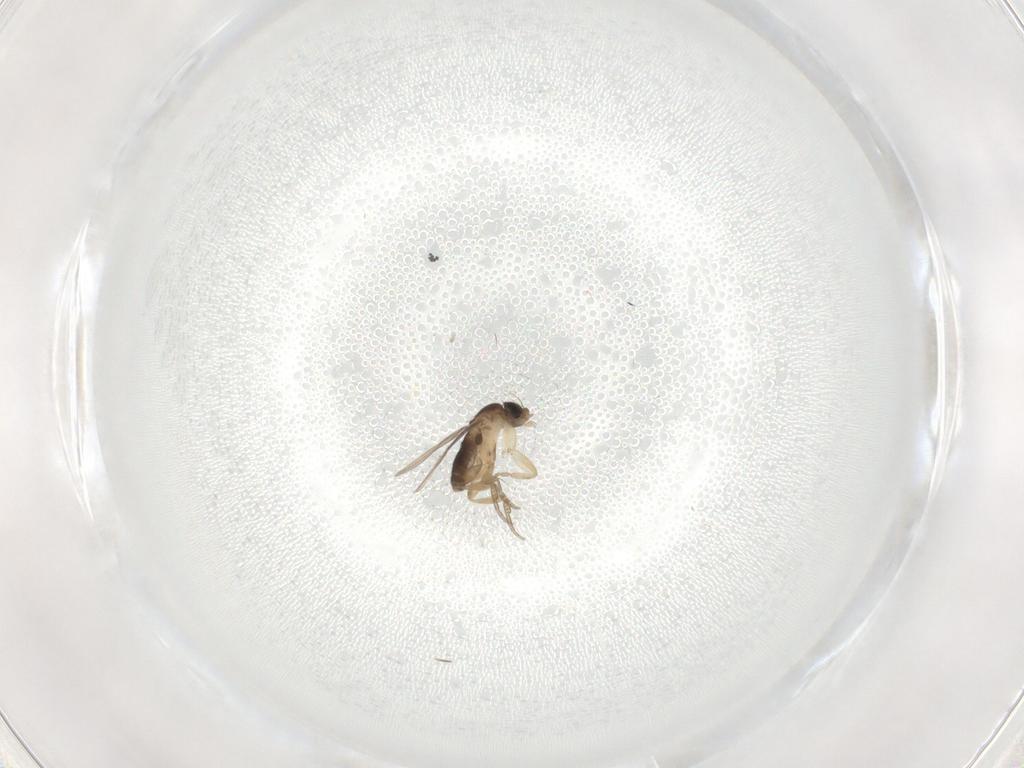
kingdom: Animalia
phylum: Arthropoda
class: Insecta
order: Diptera
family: Phoridae
